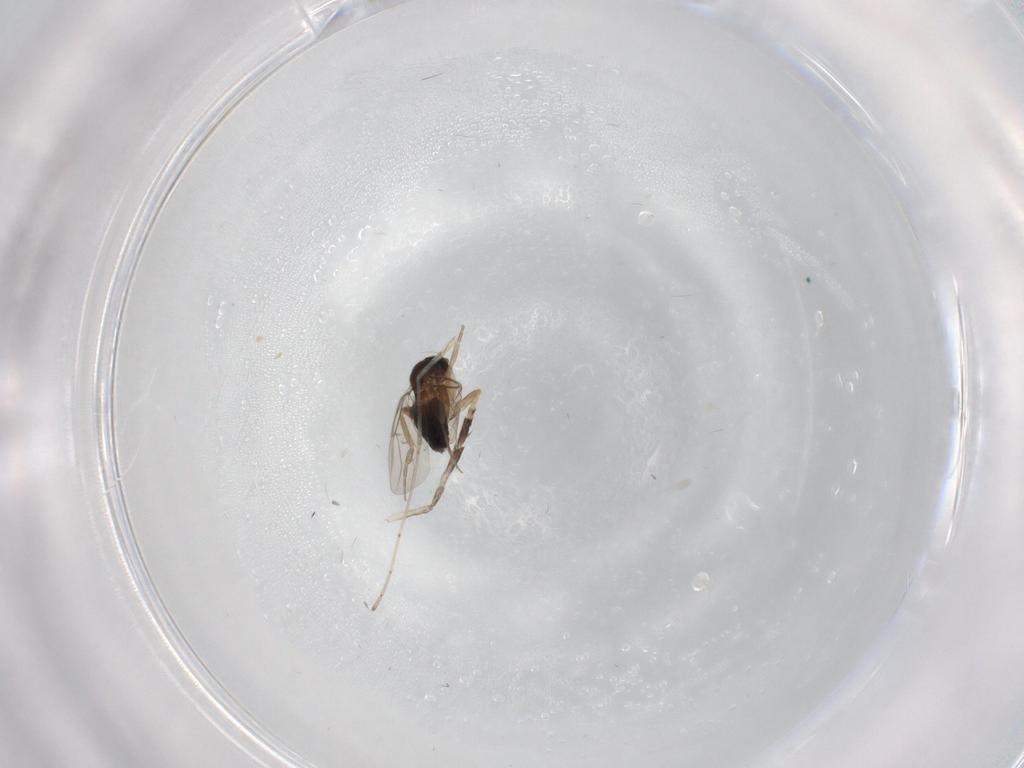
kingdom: Animalia
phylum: Arthropoda
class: Insecta
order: Diptera
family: Psychodidae
